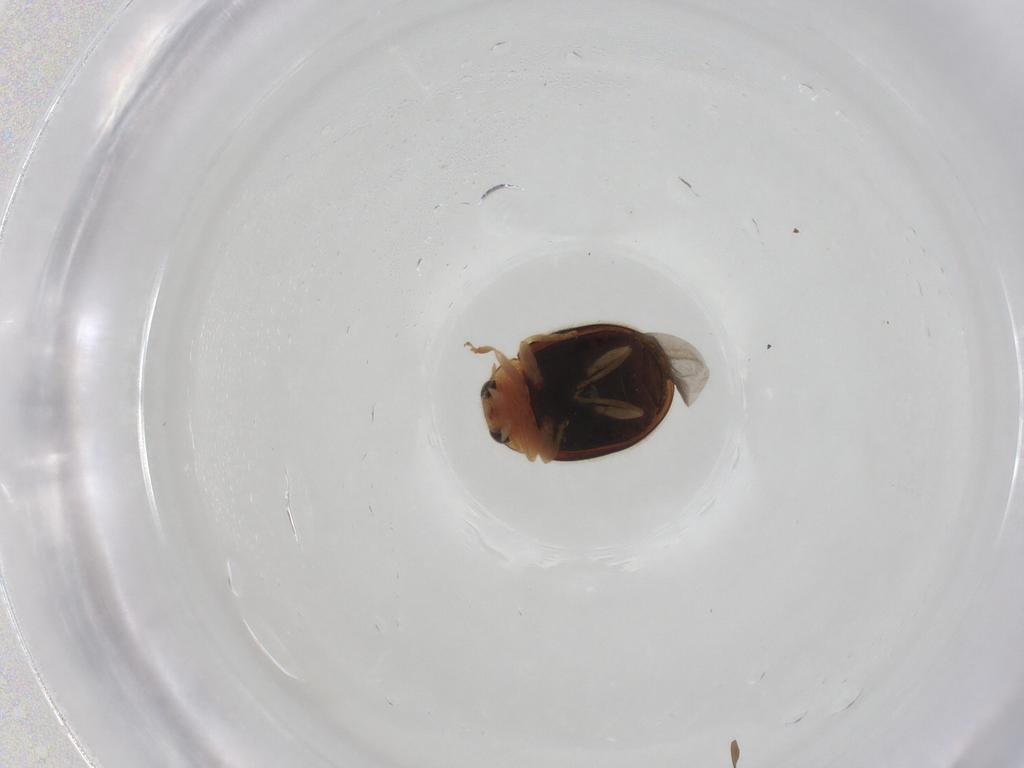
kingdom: Animalia
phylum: Arthropoda
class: Insecta
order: Coleoptera
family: Coccinellidae
